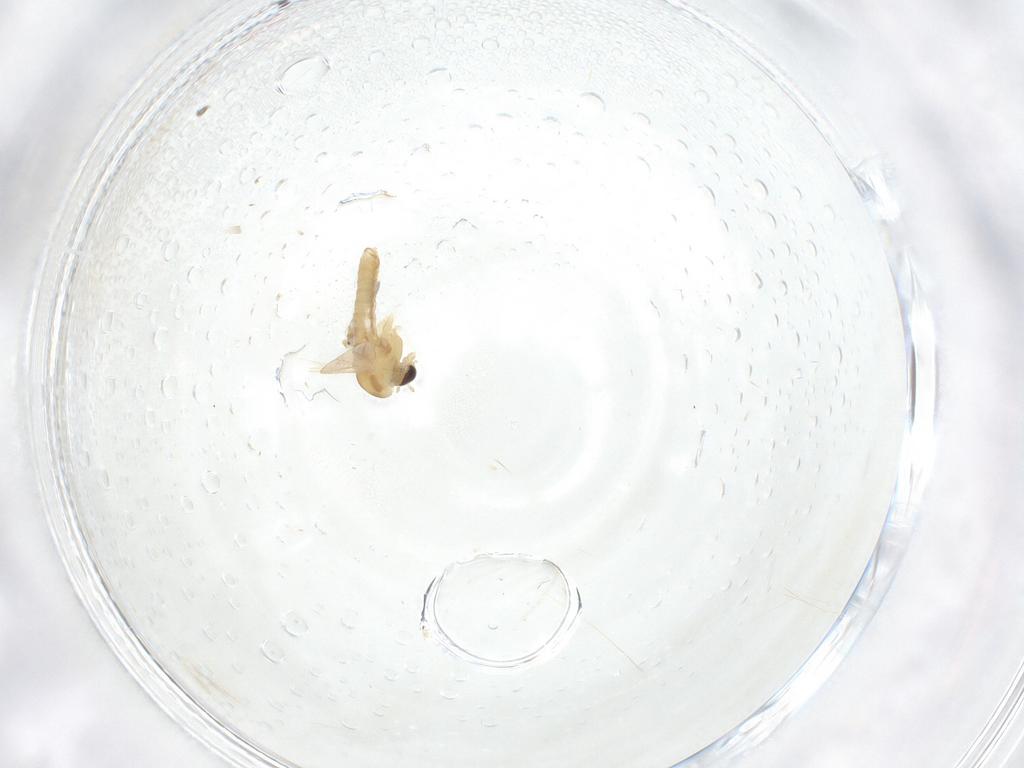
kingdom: Animalia
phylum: Arthropoda
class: Insecta
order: Diptera
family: Chironomidae
